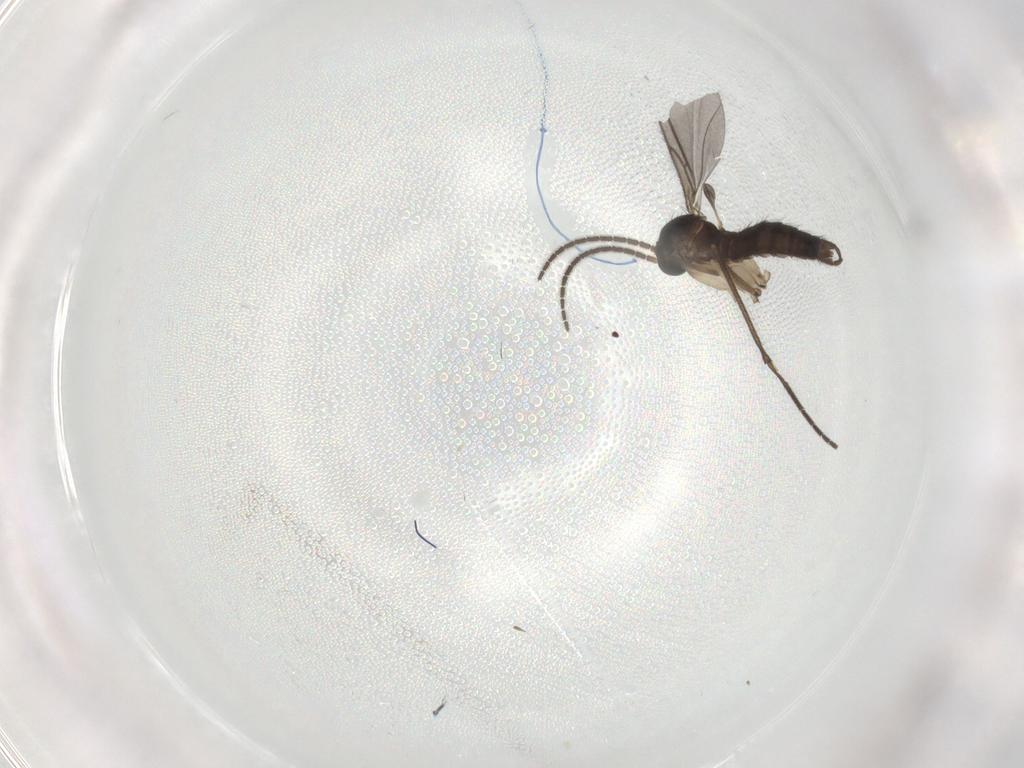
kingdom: Animalia
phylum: Arthropoda
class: Insecta
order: Diptera
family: Sciaridae
